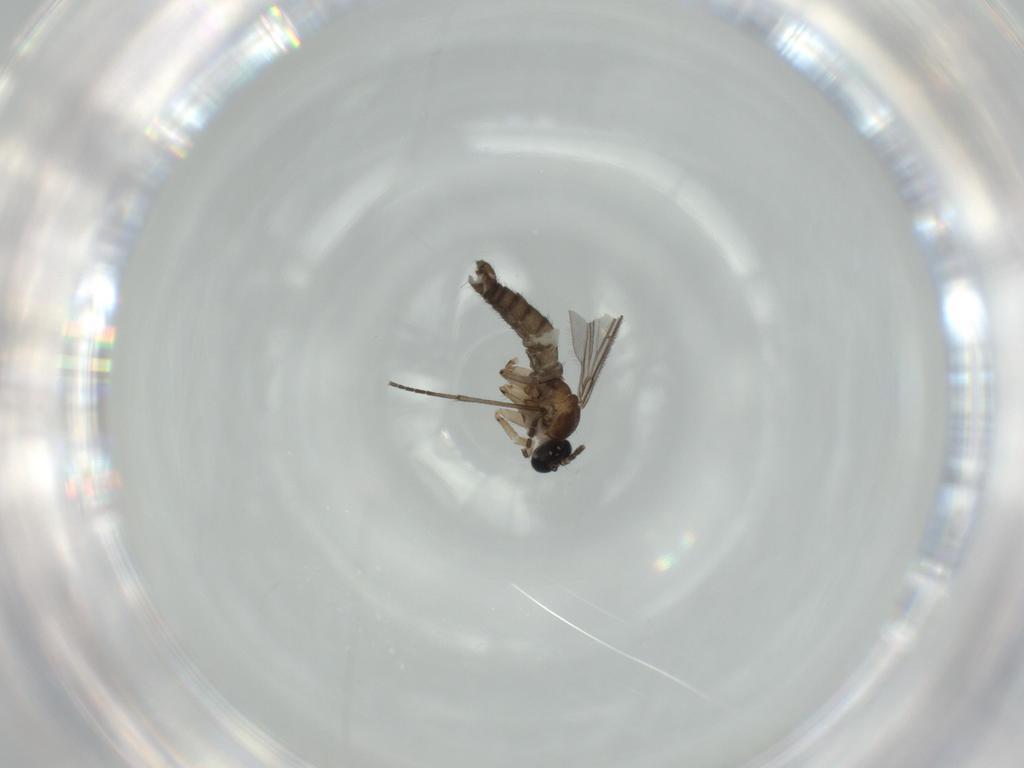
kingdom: Animalia
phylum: Arthropoda
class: Insecta
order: Diptera
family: Sciaridae
